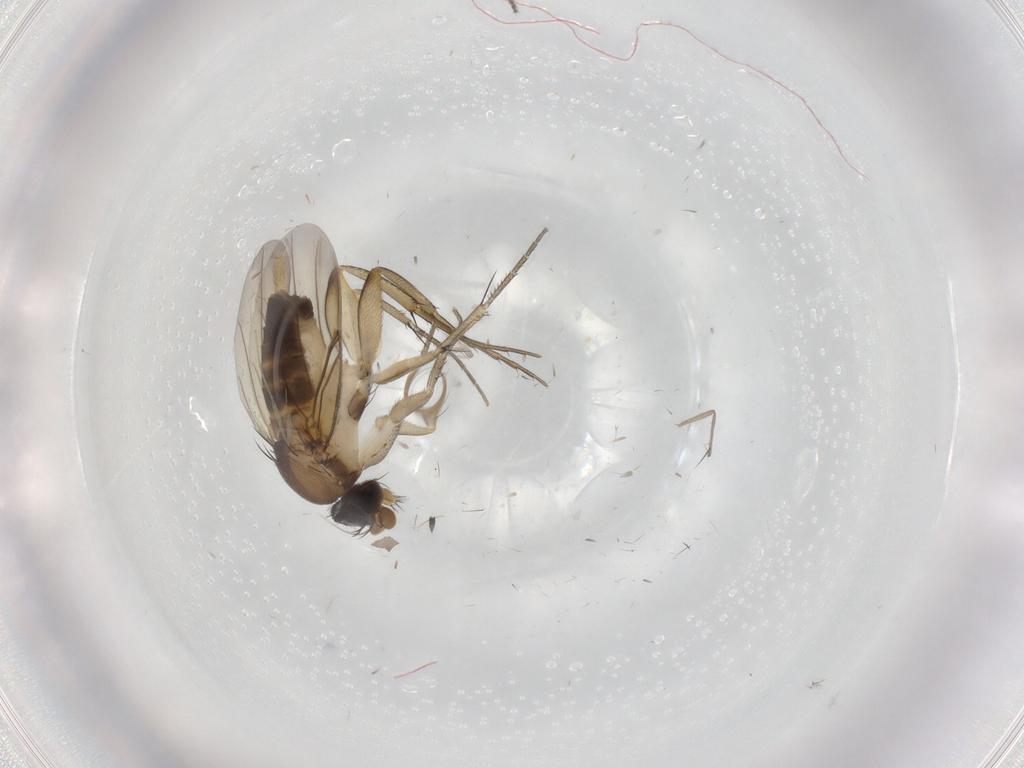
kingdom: Animalia
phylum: Arthropoda
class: Insecta
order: Diptera
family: Phoridae
